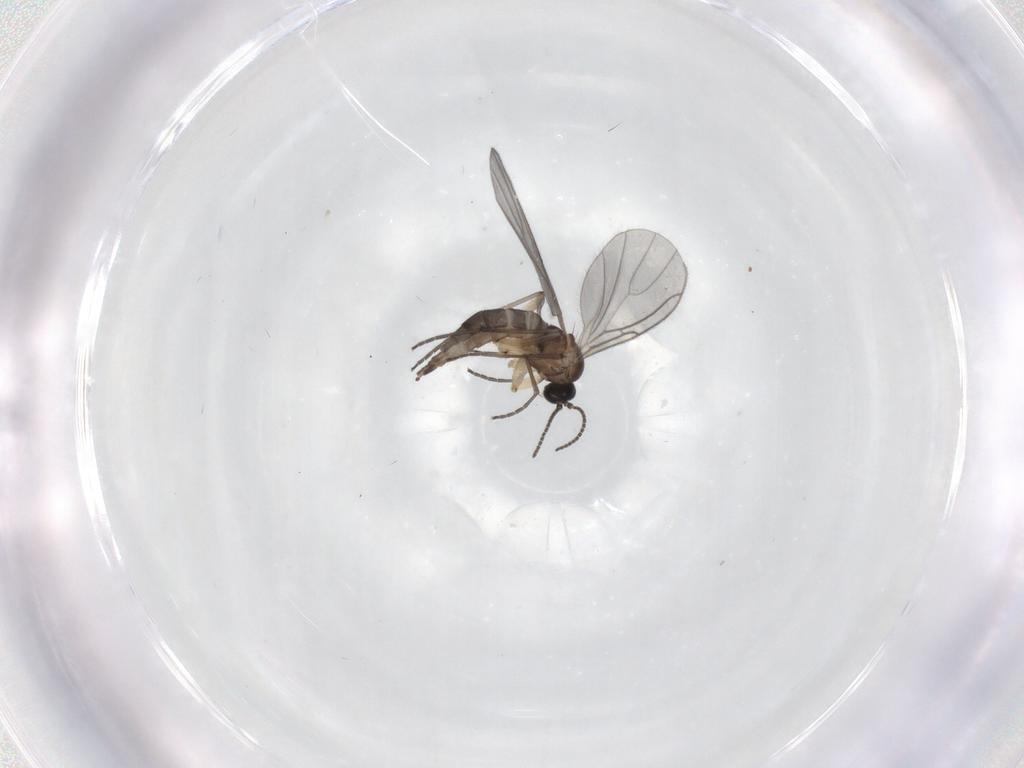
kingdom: Animalia
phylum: Arthropoda
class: Insecta
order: Diptera
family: Sciaridae
